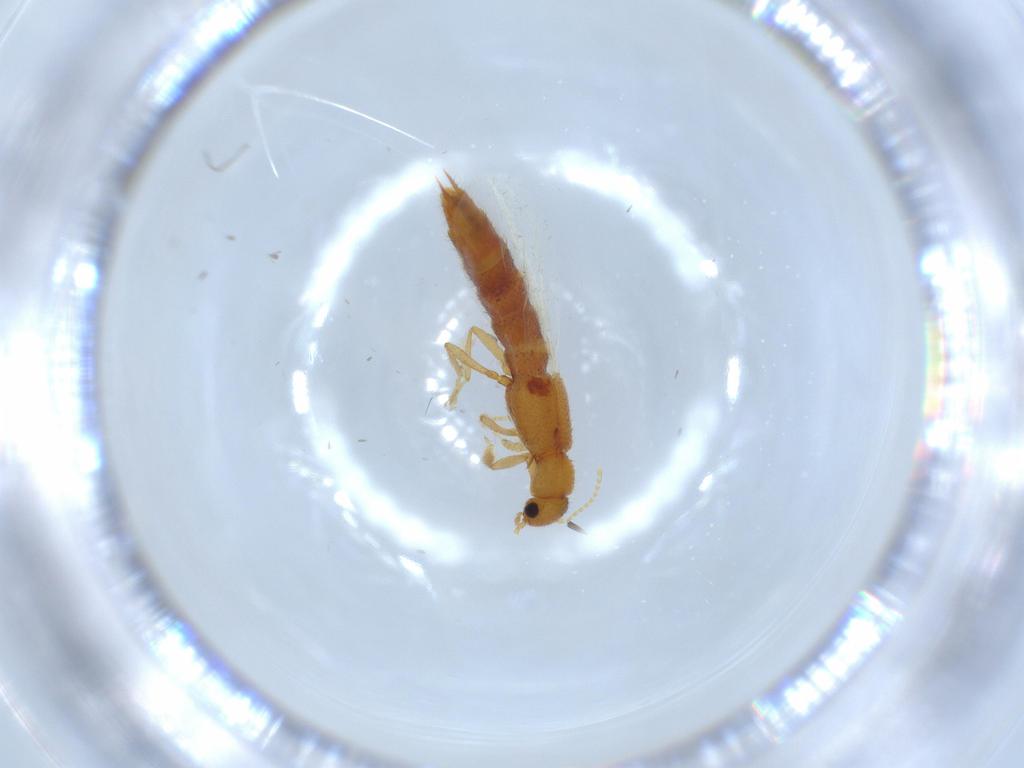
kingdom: Animalia
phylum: Arthropoda
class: Insecta
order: Coleoptera
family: Staphylinidae
